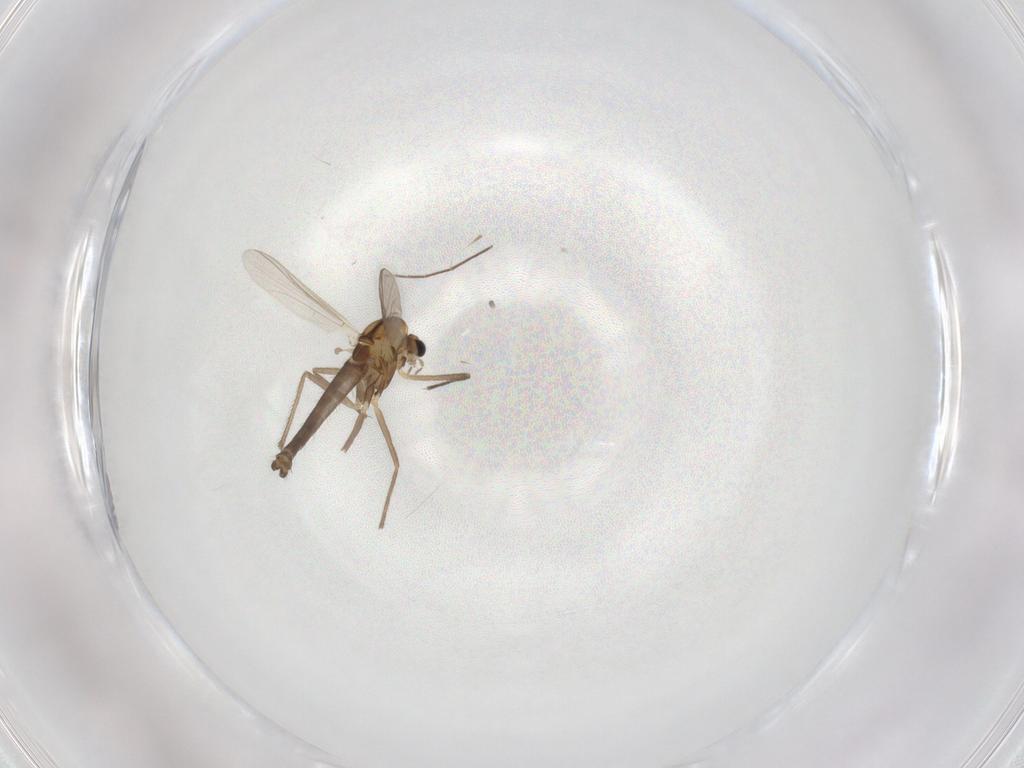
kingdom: Animalia
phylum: Arthropoda
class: Insecta
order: Diptera
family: Chironomidae
